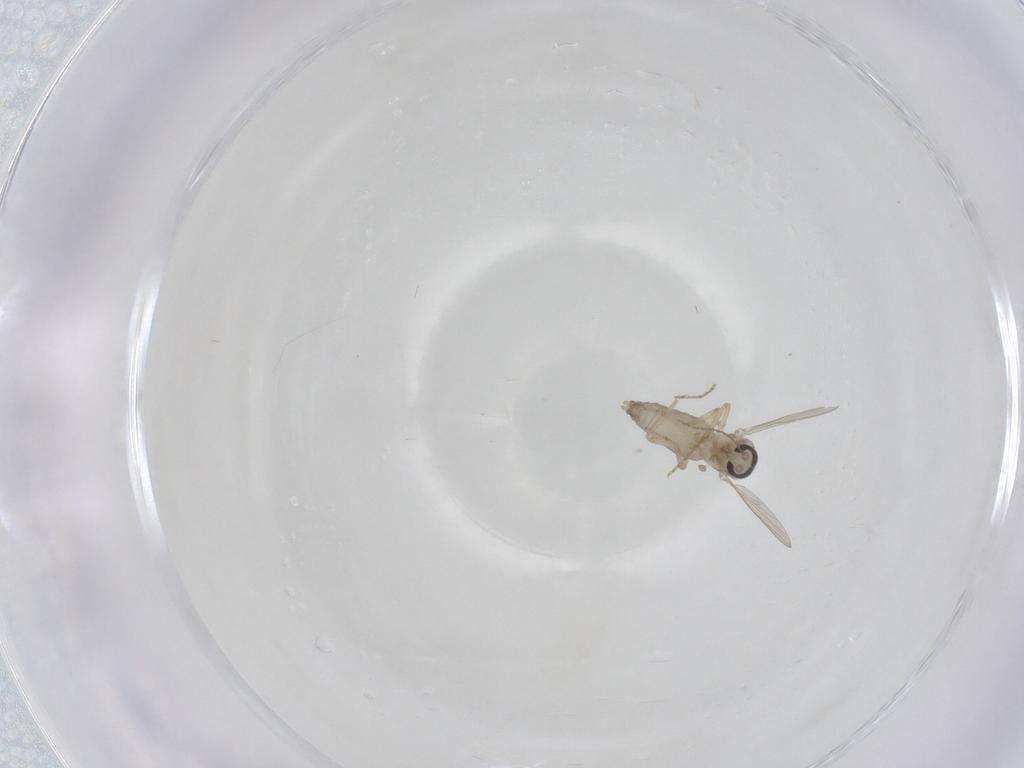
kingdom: Animalia
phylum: Arthropoda
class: Insecta
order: Diptera
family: Ceratopogonidae
